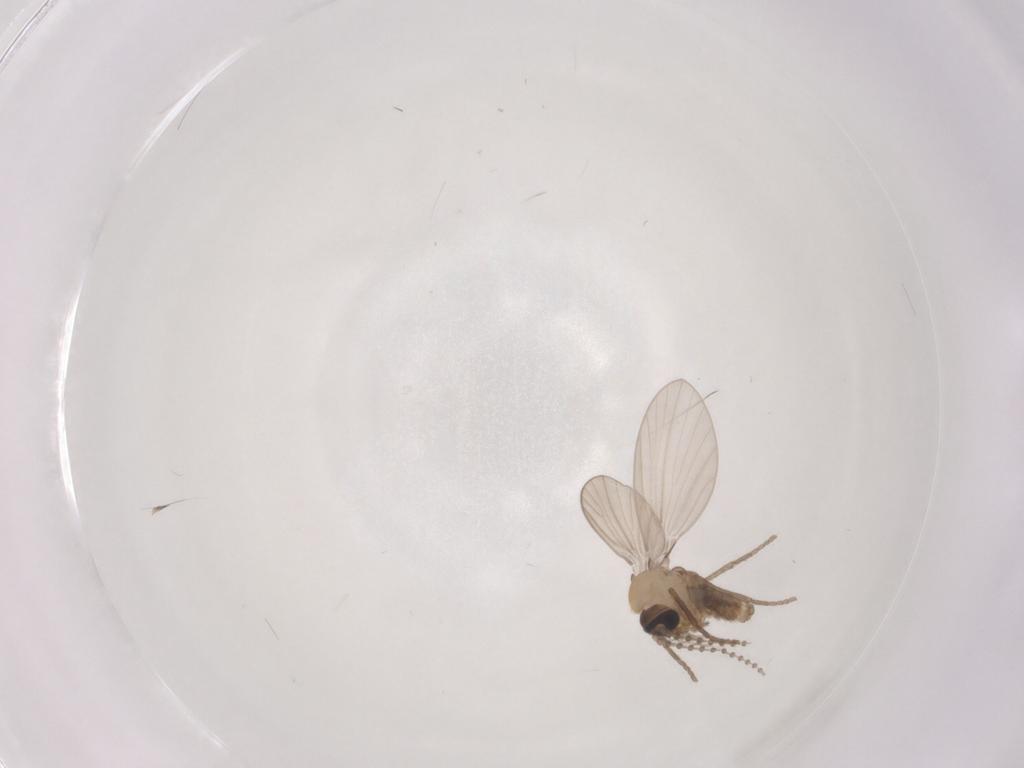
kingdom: Animalia
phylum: Arthropoda
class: Insecta
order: Diptera
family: Psychodidae
